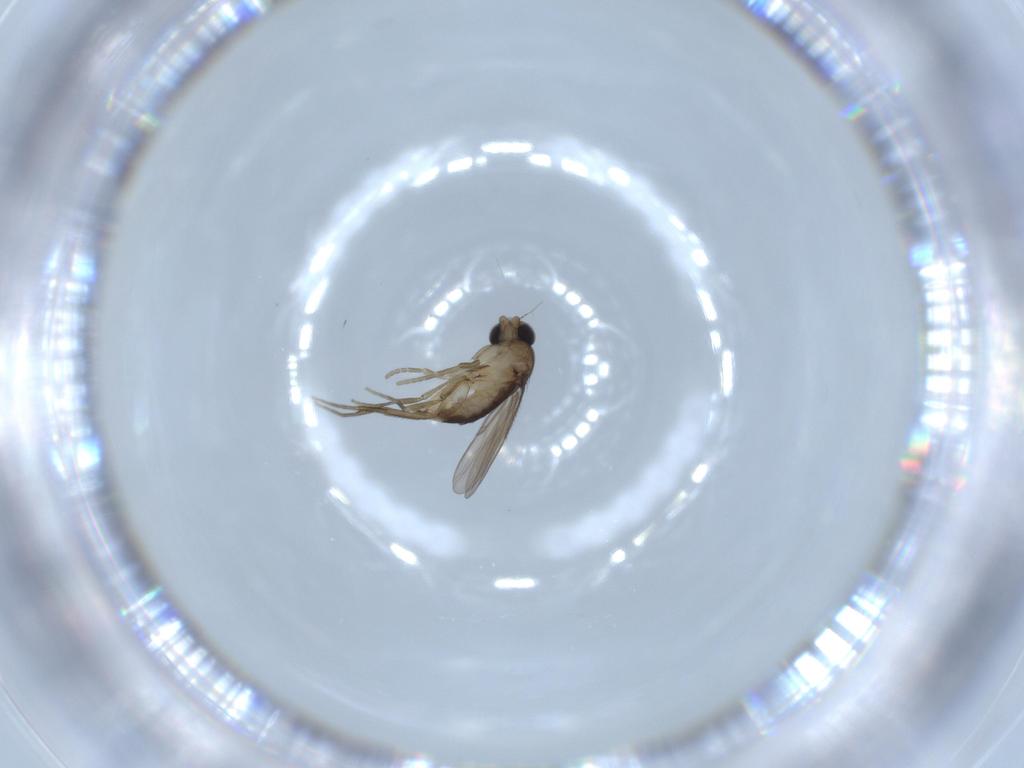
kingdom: Animalia
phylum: Arthropoda
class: Insecta
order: Diptera
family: Phoridae
